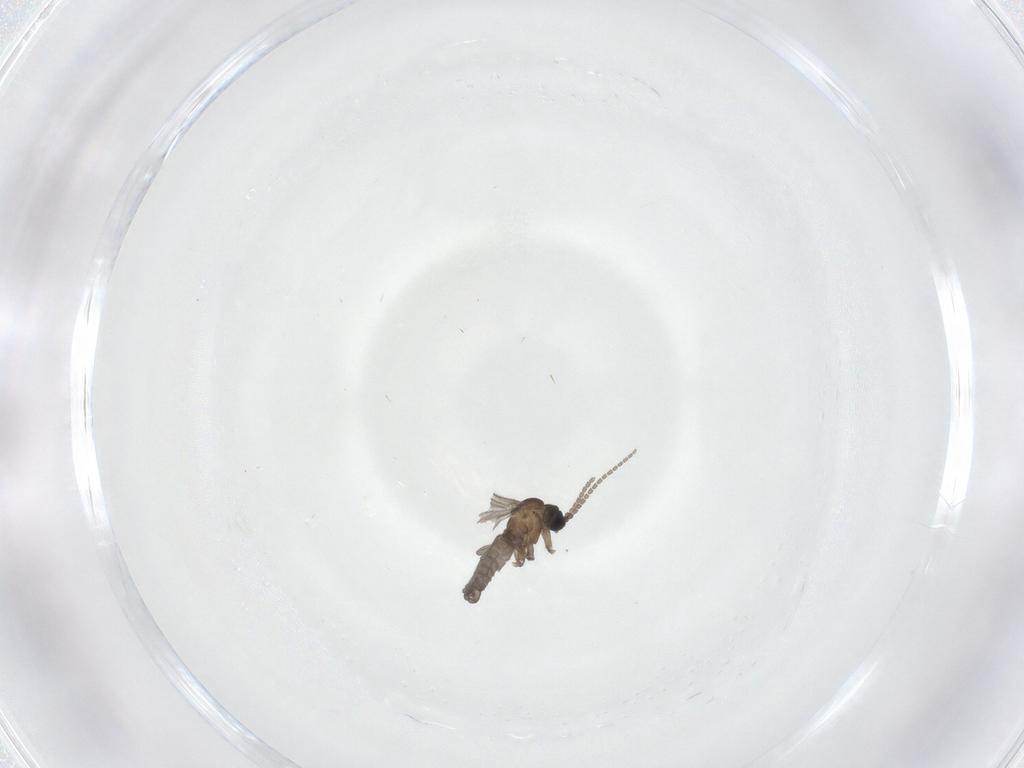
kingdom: Animalia
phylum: Arthropoda
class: Insecta
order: Diptera
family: Sciaridae
